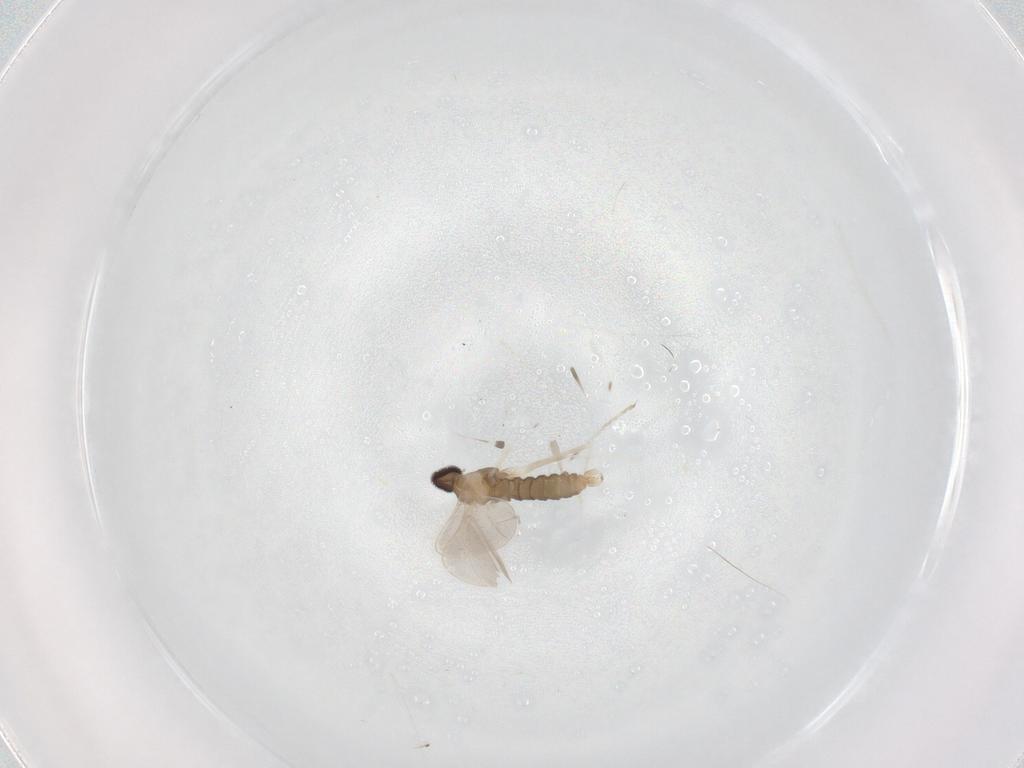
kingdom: Animalia
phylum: Arthropoda
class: Insecta
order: Diptera
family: Cecidomyiidae
